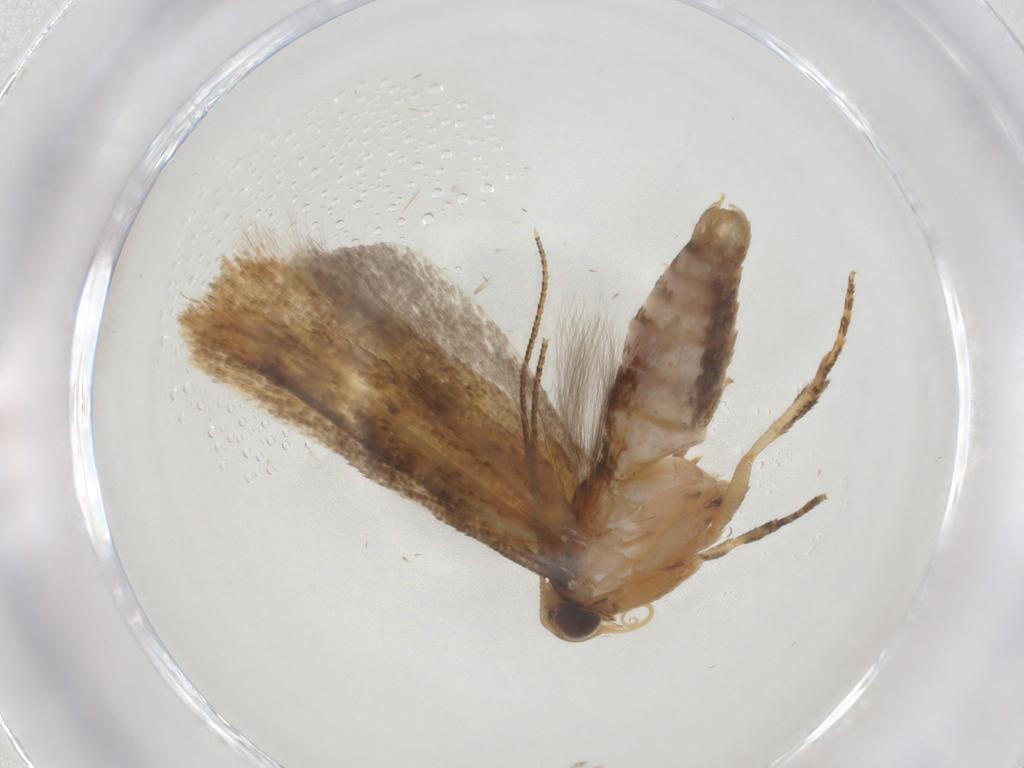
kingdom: Animalia
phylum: Arthropoda
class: Insecta
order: Lepidoptera
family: Gelechiidae
